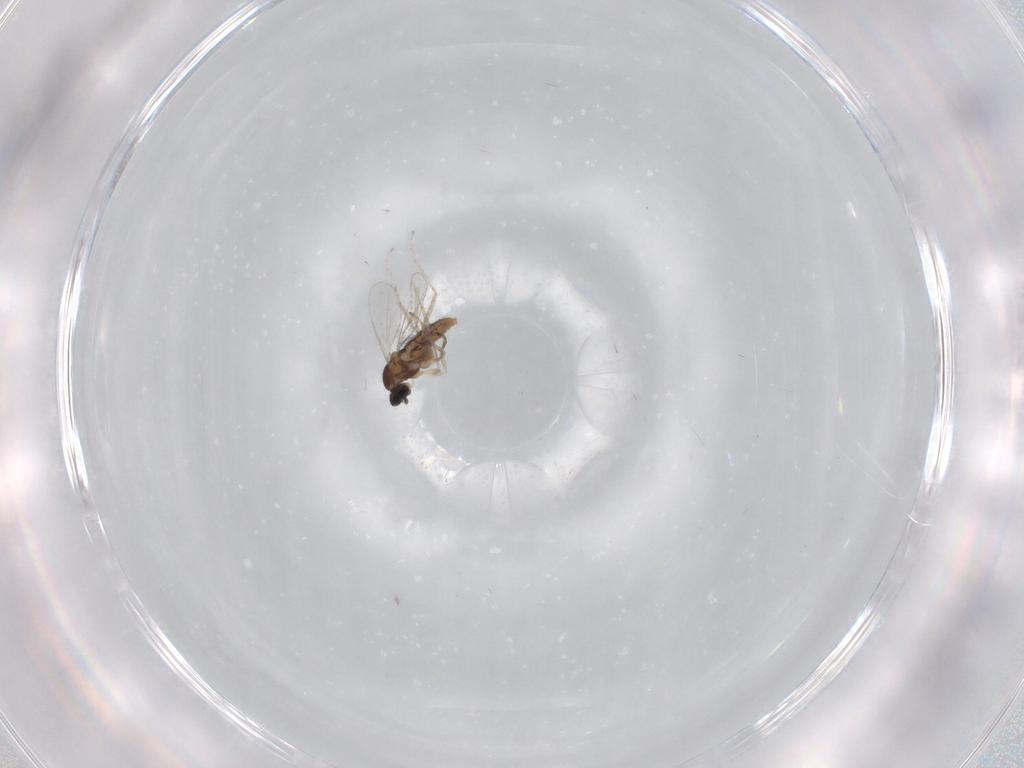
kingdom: Animalia
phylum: Arthropoda
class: Insecta
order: Diptera
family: Cecidomyiidae
